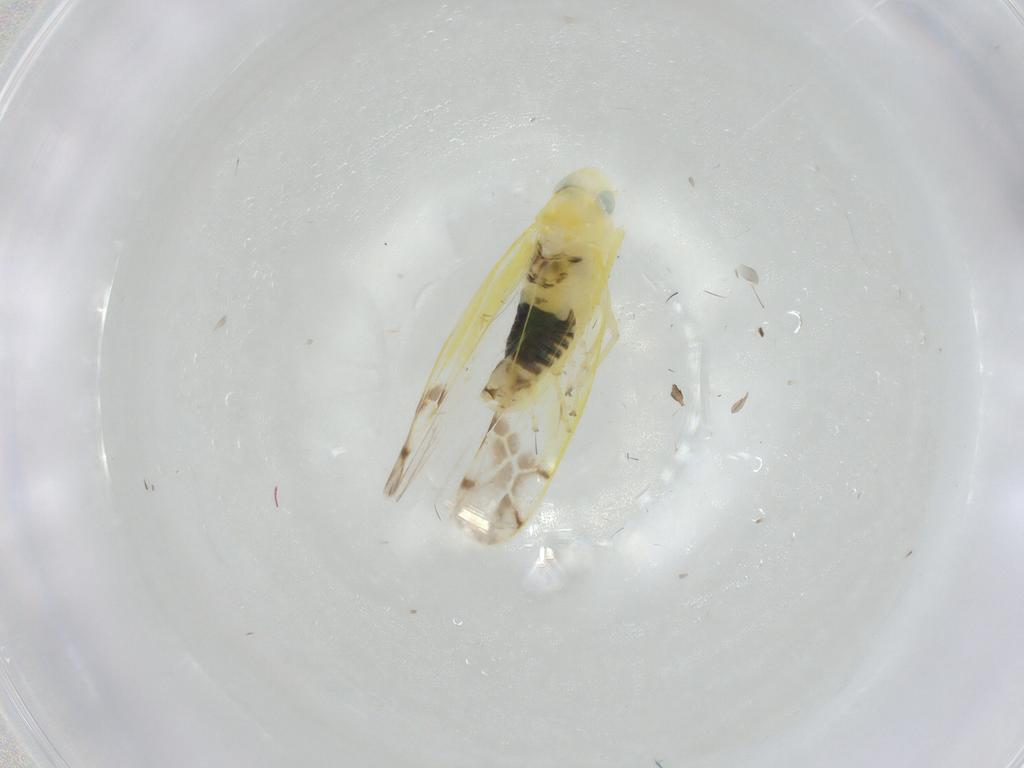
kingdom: Animalia
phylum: Arthropoda
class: Insecta
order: Hemiptera
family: Cicadellidae
